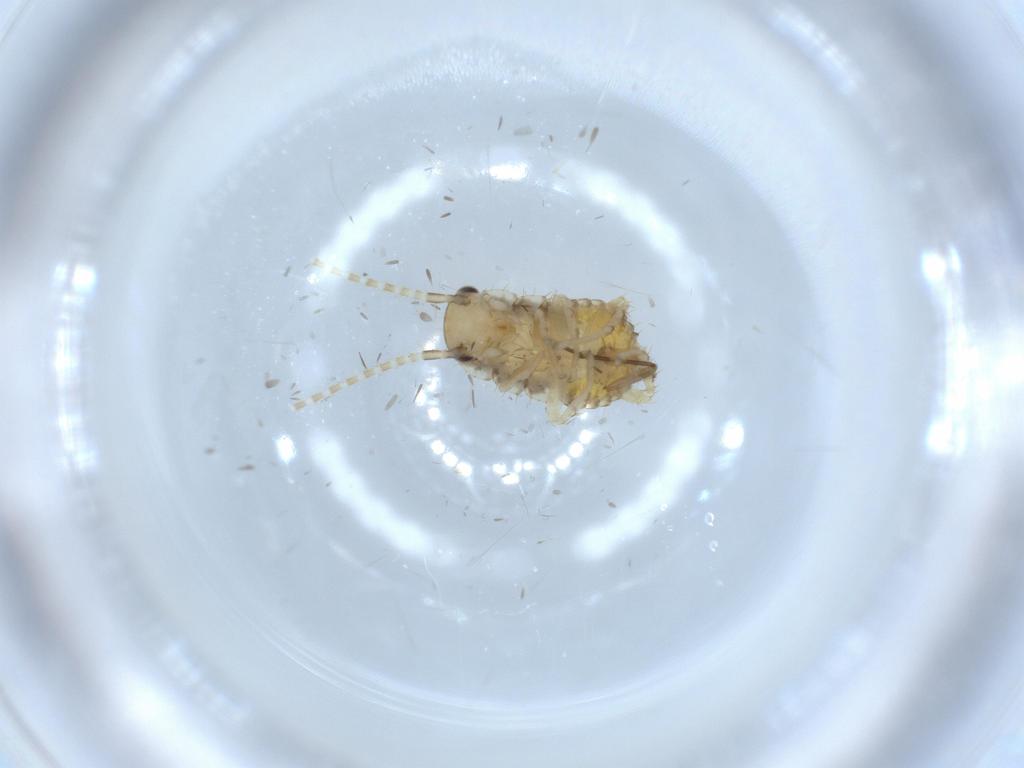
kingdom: Animalia
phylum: Arthropoda
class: Insecta
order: Blattodea
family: Ectobiidae
